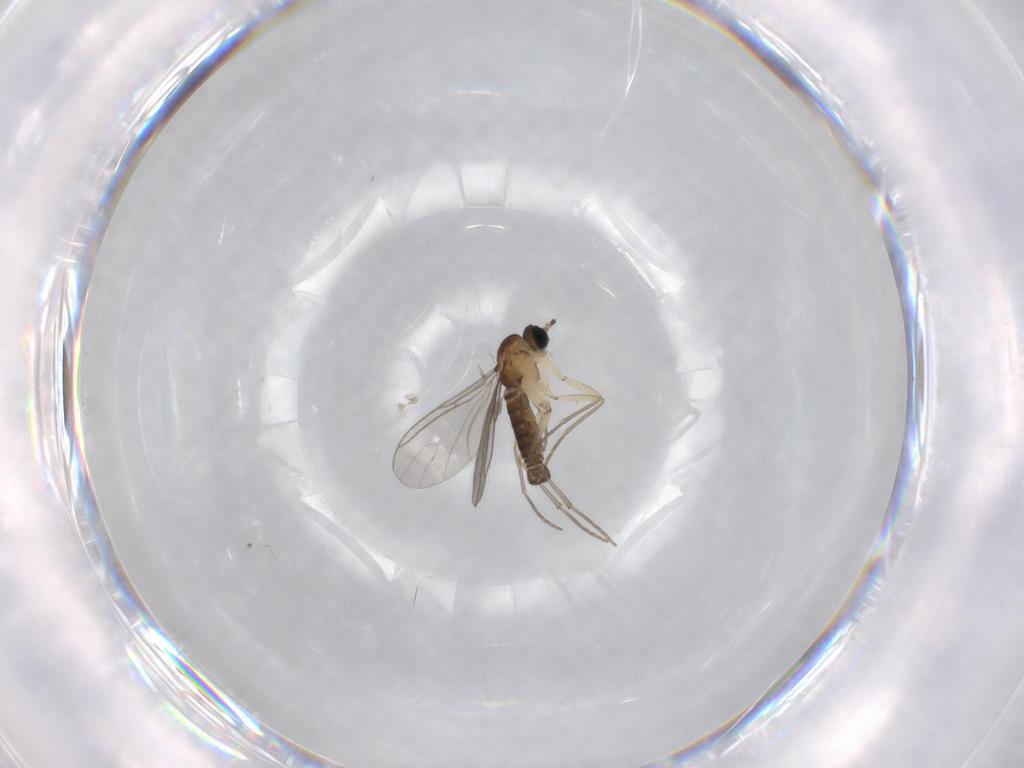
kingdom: Animalia
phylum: Arthropoda
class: Insecta
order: Diptera
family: Sciaridae
